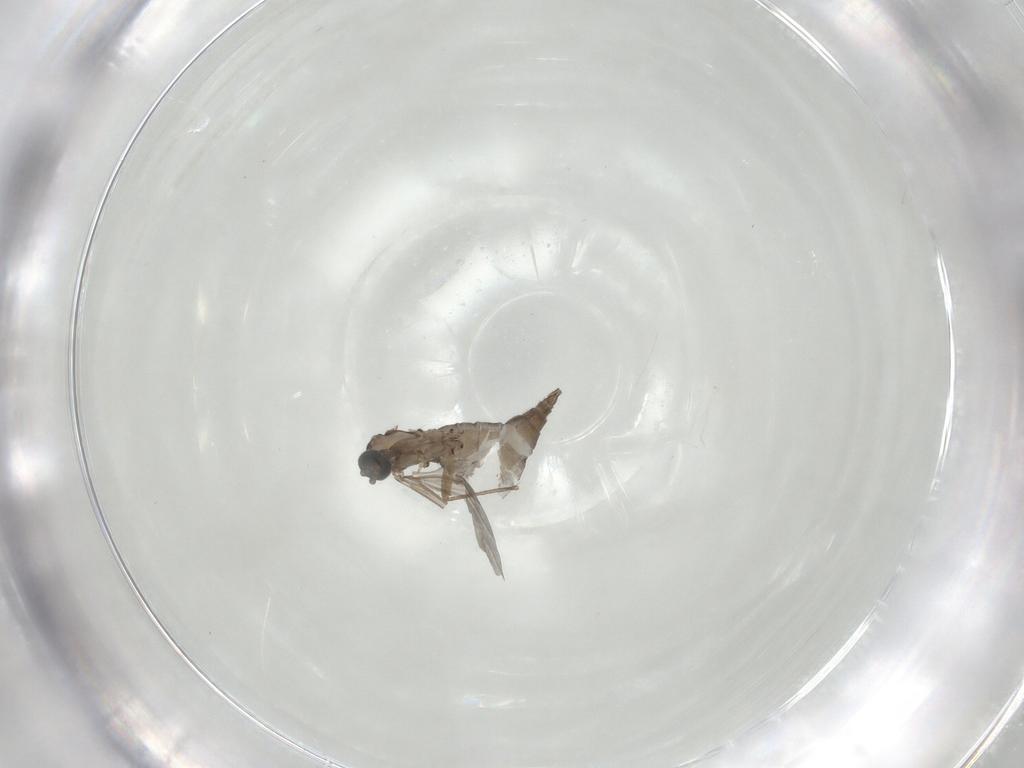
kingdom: Animalia
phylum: Arthropoda
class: Insecta
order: Diptera
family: Sciaridae
